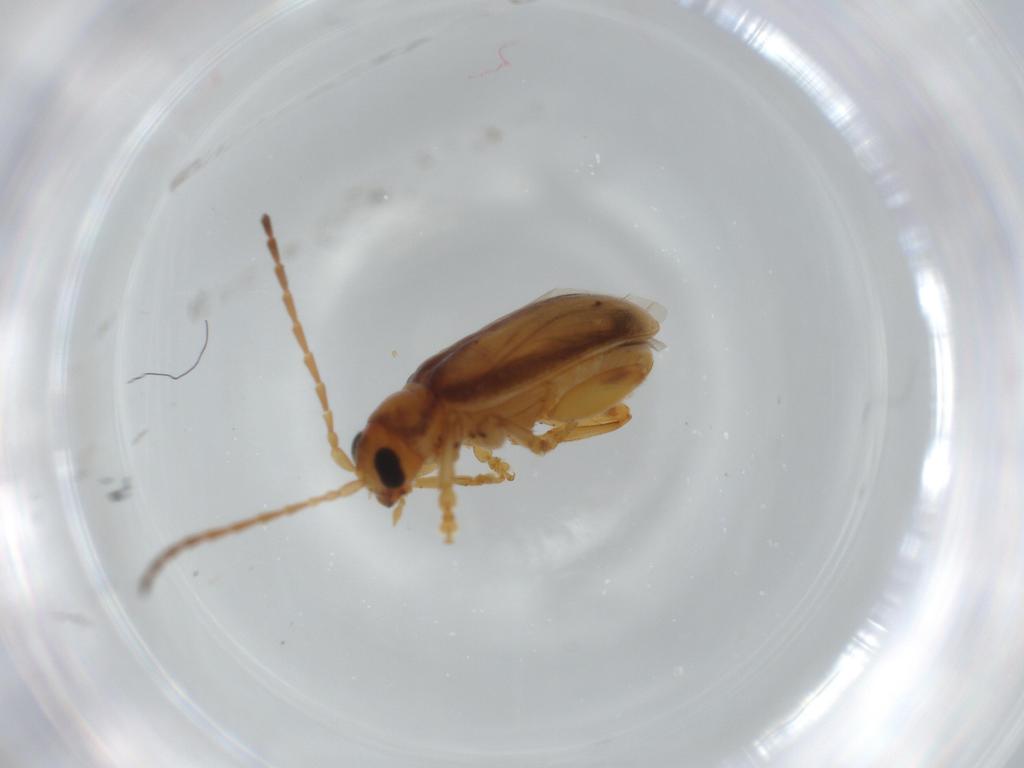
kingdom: Animalia
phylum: Arthropoda
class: Insecta
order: Coleoptera
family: Chrysomelidae
